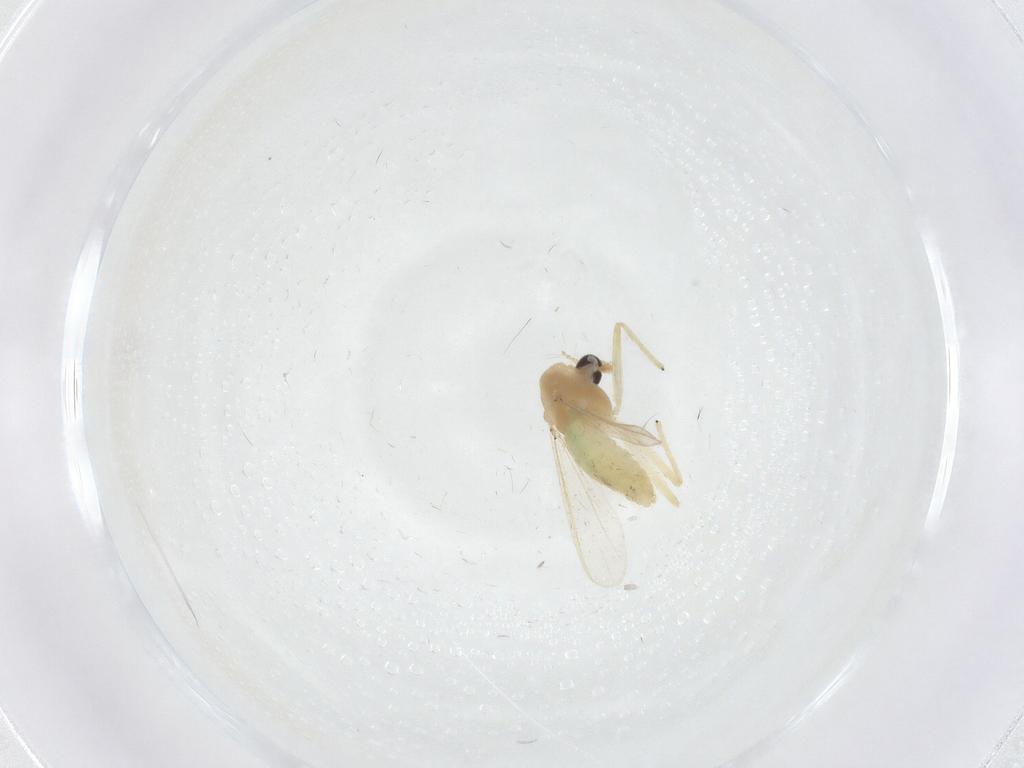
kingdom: Animalia
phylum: Arthropoda
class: Insecta
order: Diptera
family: Chironomidae
